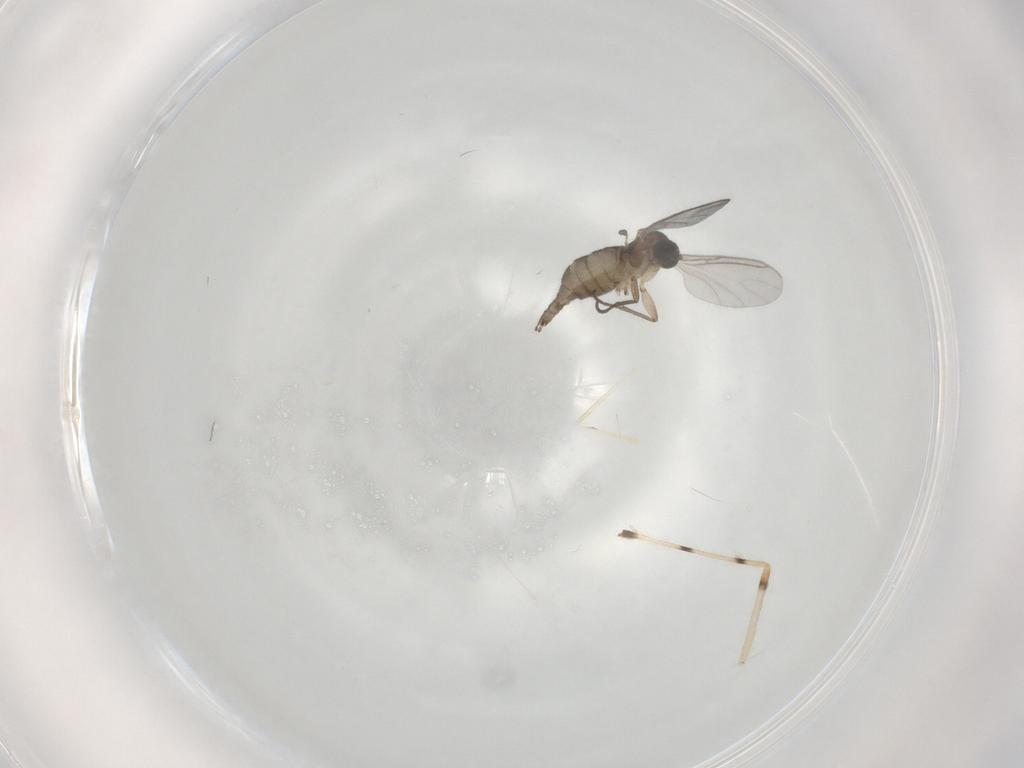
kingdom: Animalia
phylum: Arthropoda
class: Insecta
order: Diptera
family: Sciaridae
